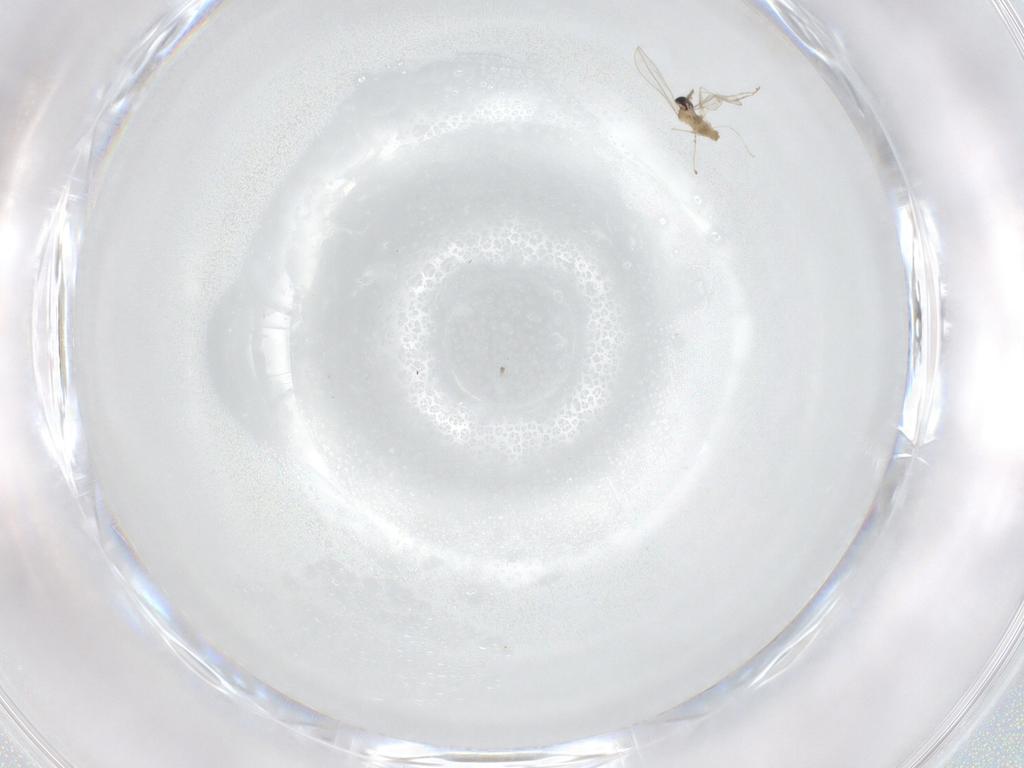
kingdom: Animalia
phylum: Arthropoda
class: Insecta
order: Diptera
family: Cecidomyiidae
